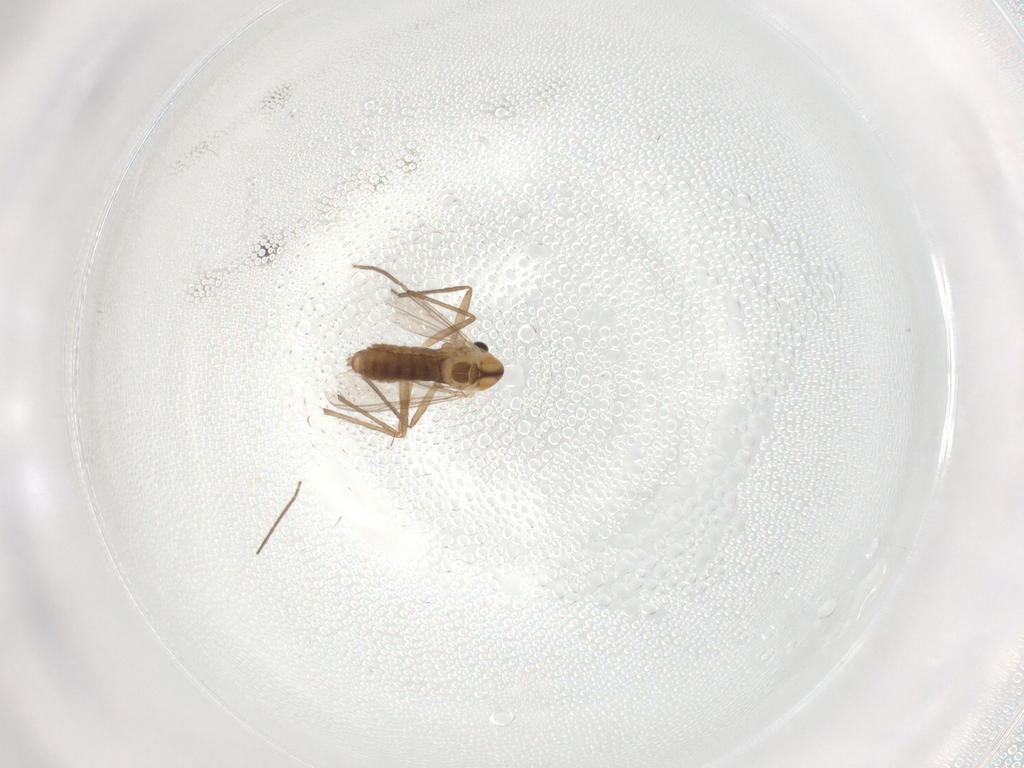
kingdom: Animalia
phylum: Arthropoda
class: Insecta
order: Diptera
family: Chironomidae
